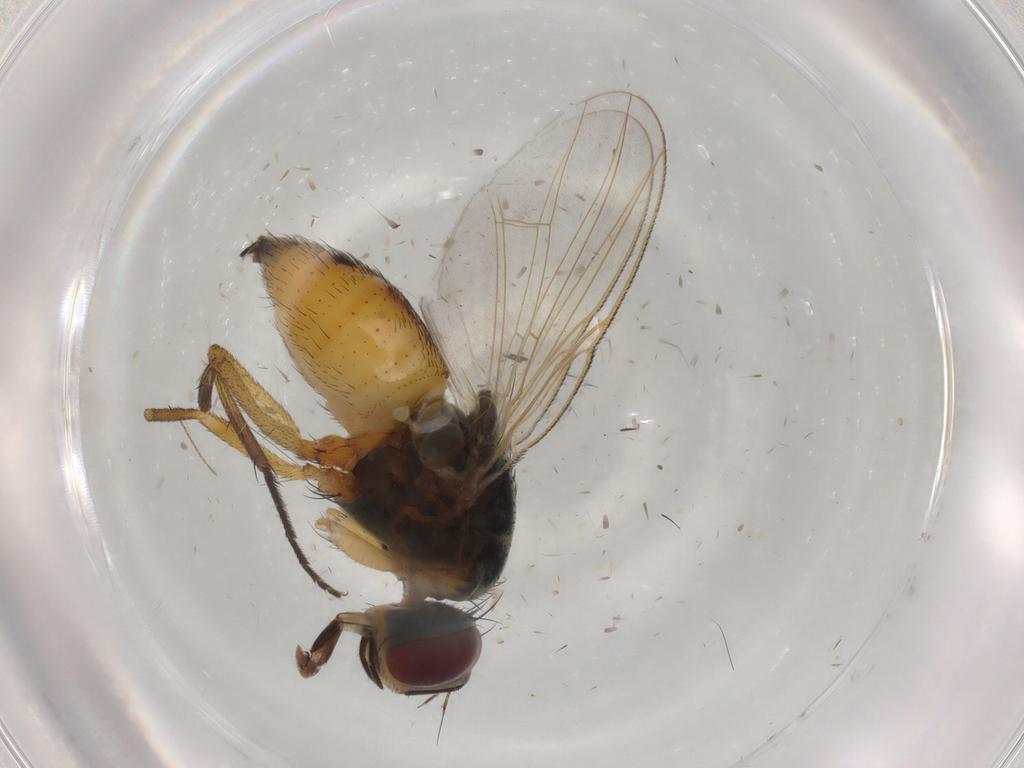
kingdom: Animalia
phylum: Arthropoda
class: Insecta
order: Diptera
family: Muscidae
